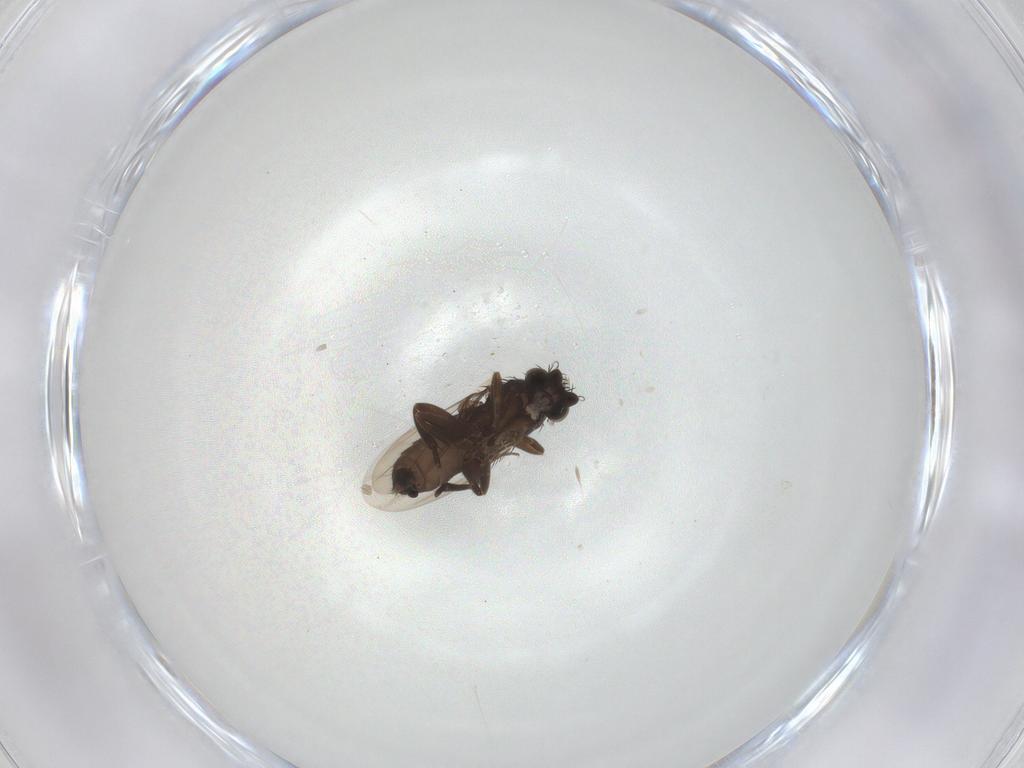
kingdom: Animalia
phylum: Arthropoda
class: Insecta
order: Diptera
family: Phoridae
